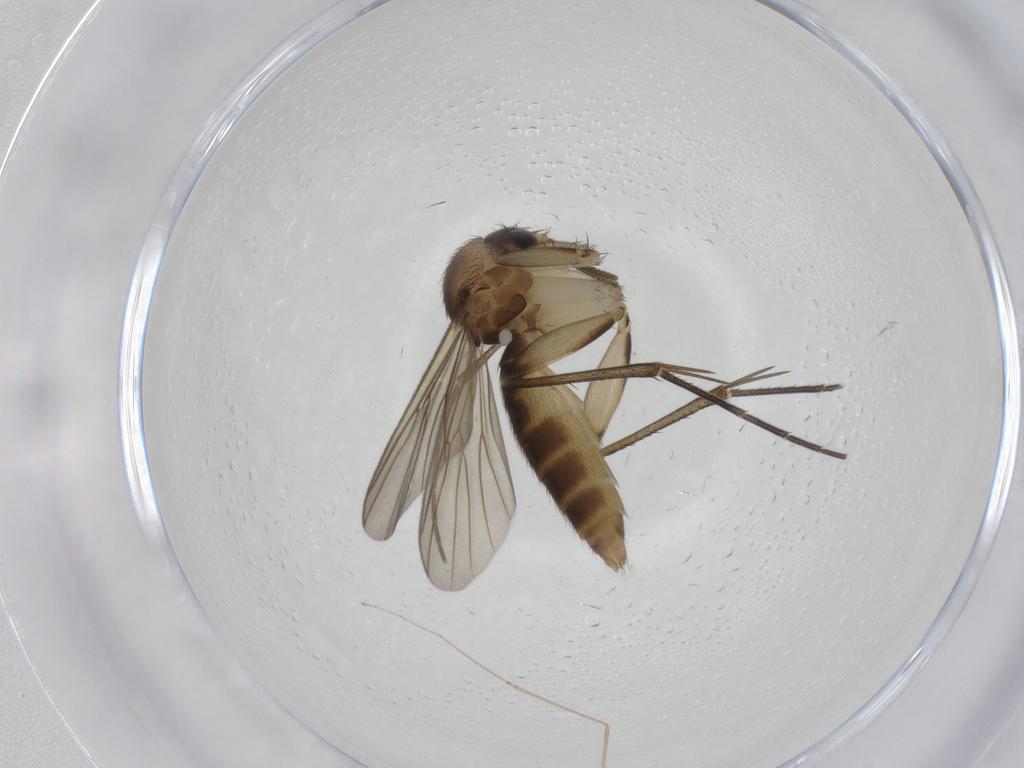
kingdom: Animalia
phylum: Arthropoda
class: Insecta
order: Diptera
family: Mycetophilidae
